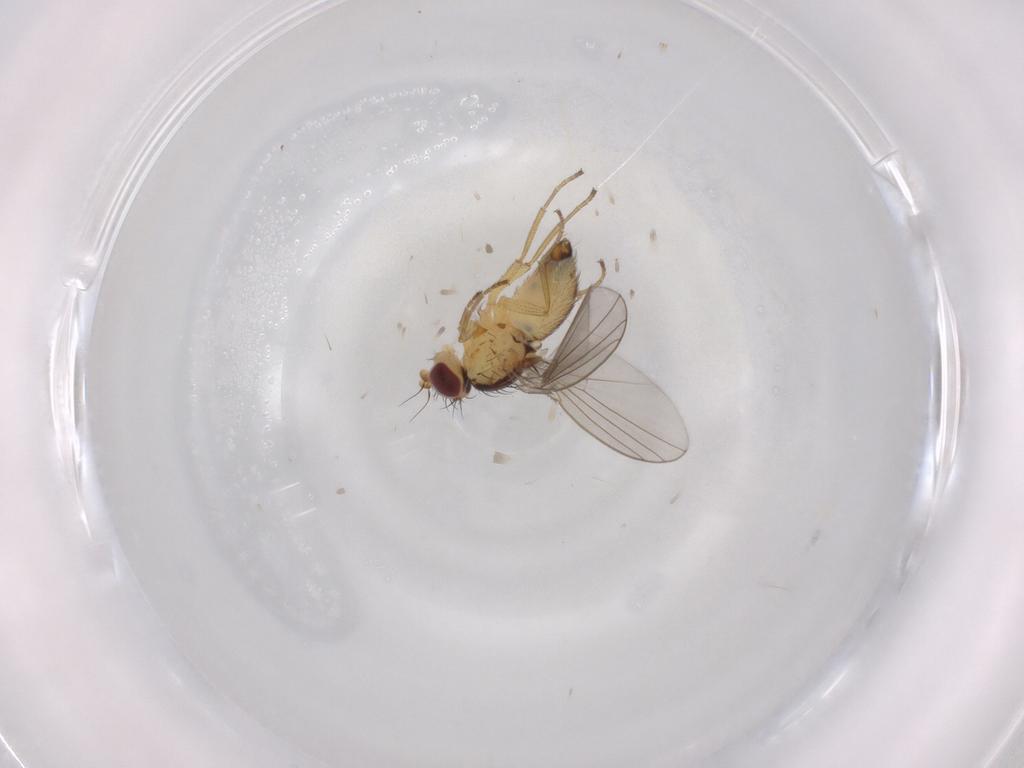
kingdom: Animalia
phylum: Arthropoda
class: Insecta
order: Diptera
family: Agromyzidae
